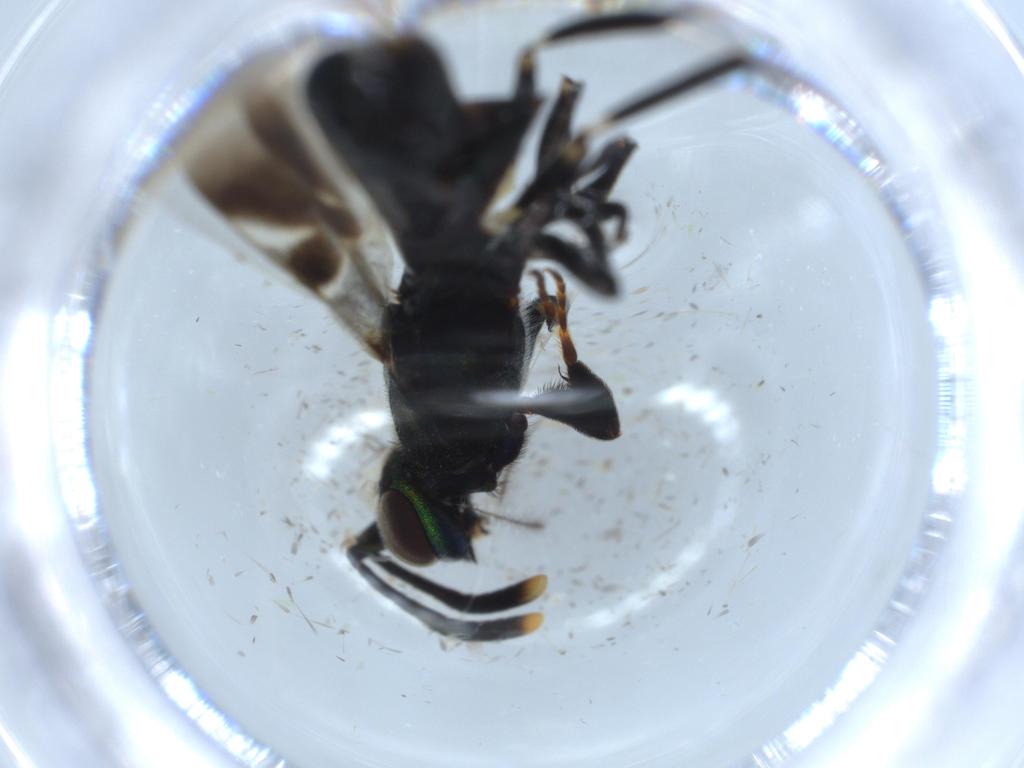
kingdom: Animalia
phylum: Arthropoda
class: Insecta
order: Hymenoptera
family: Eupelmidae
